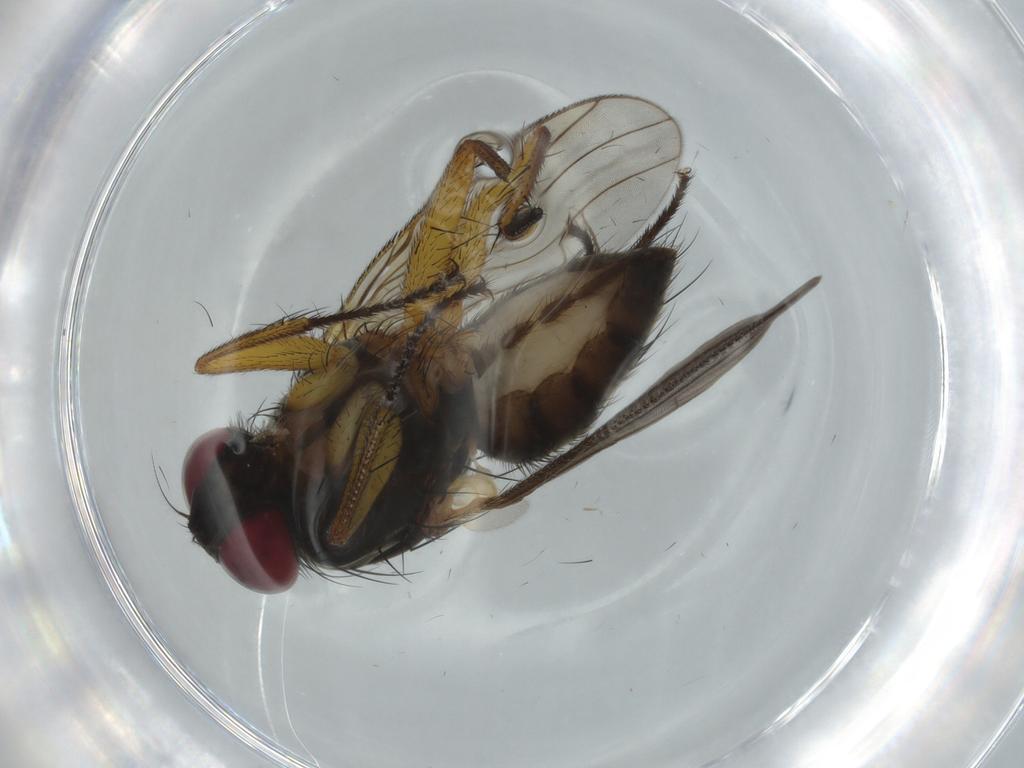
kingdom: Animalia
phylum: Arthropoda
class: Insecta
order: Diptera
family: Muscidae
